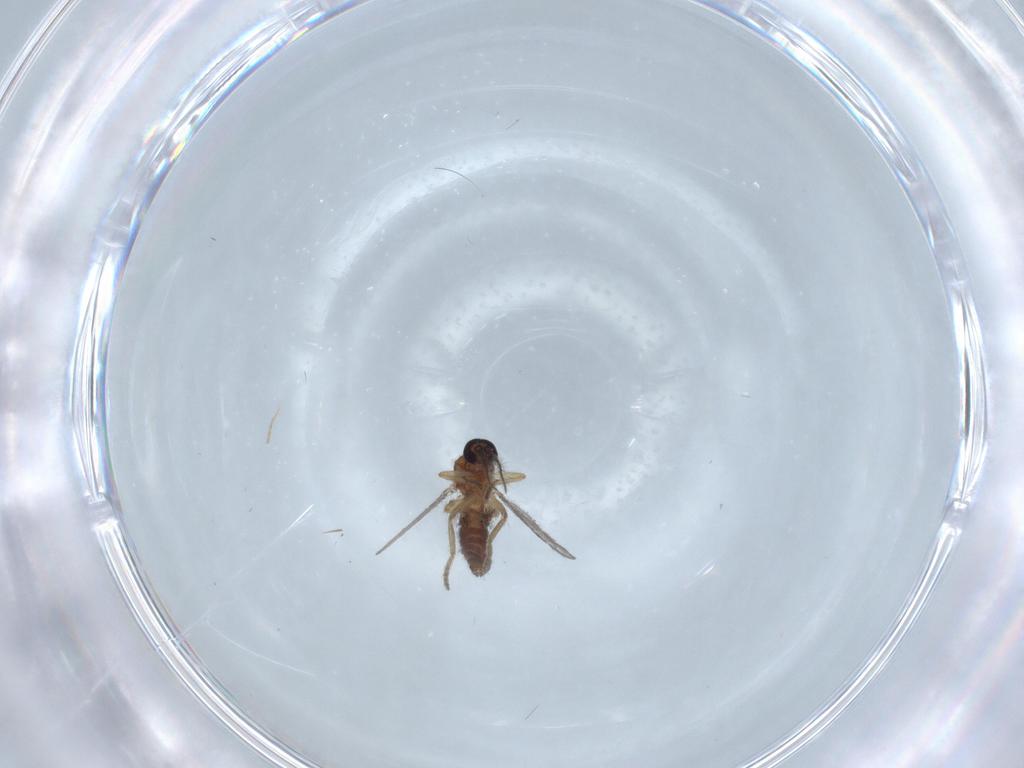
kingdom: Animalia
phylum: Arthropoda
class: Insecta
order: Diptera
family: Ceratopogonidae
